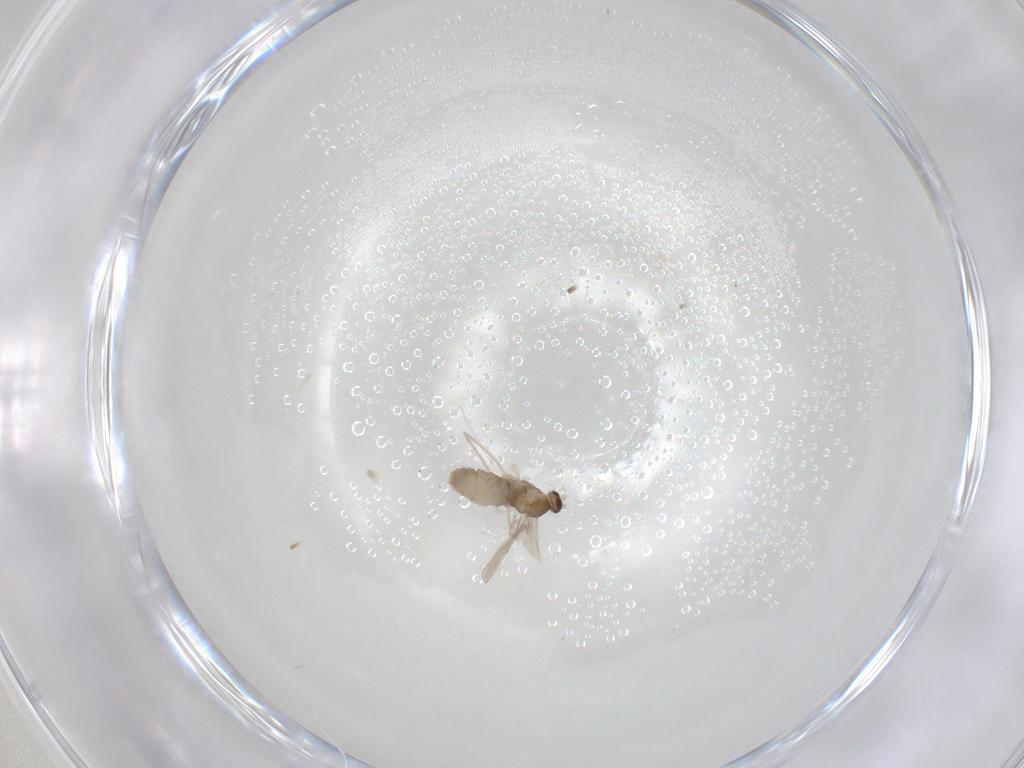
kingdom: Animalia
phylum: Arthropoda
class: Insecta
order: Diptera
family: Cecidomyiidae
